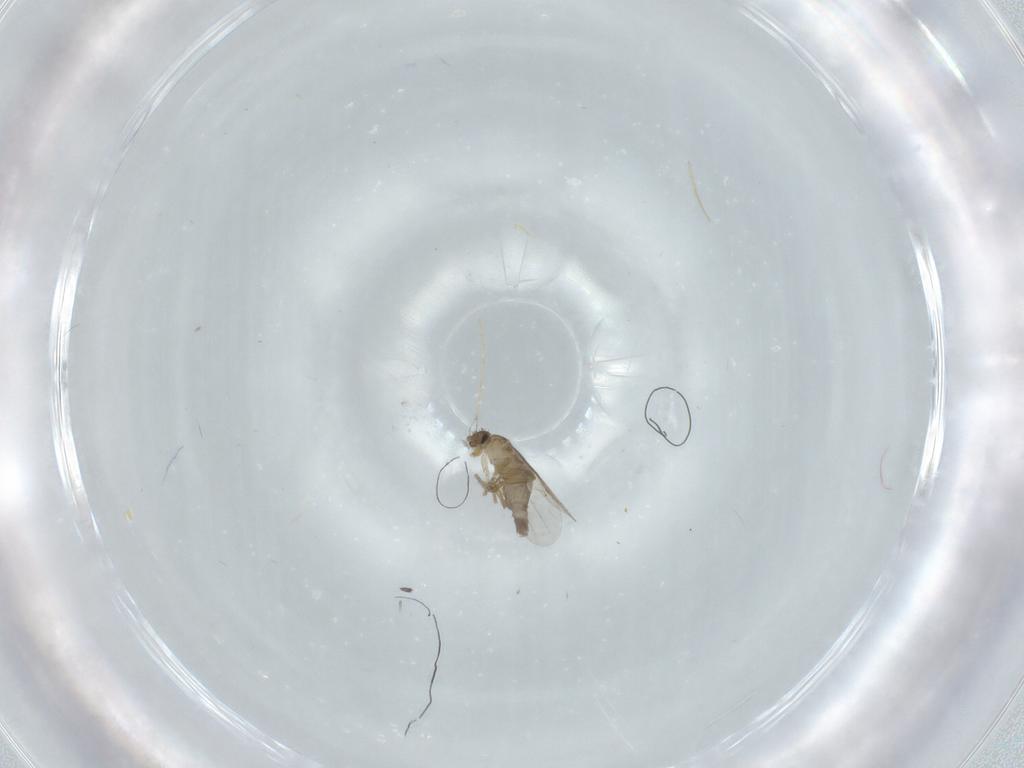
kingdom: Animalia
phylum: Arthropoda
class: Insecta
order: Diptera
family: Phoridae
